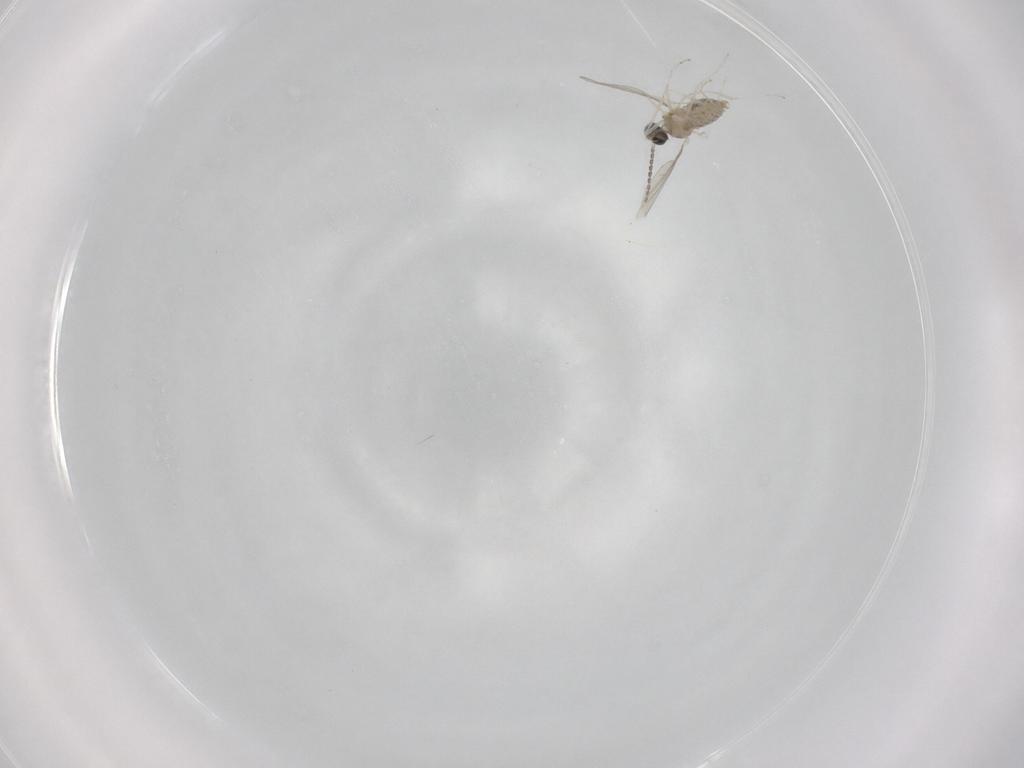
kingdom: Animalia
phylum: Arthropoda
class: Insecta
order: Diptera
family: Cecidomyiidae
